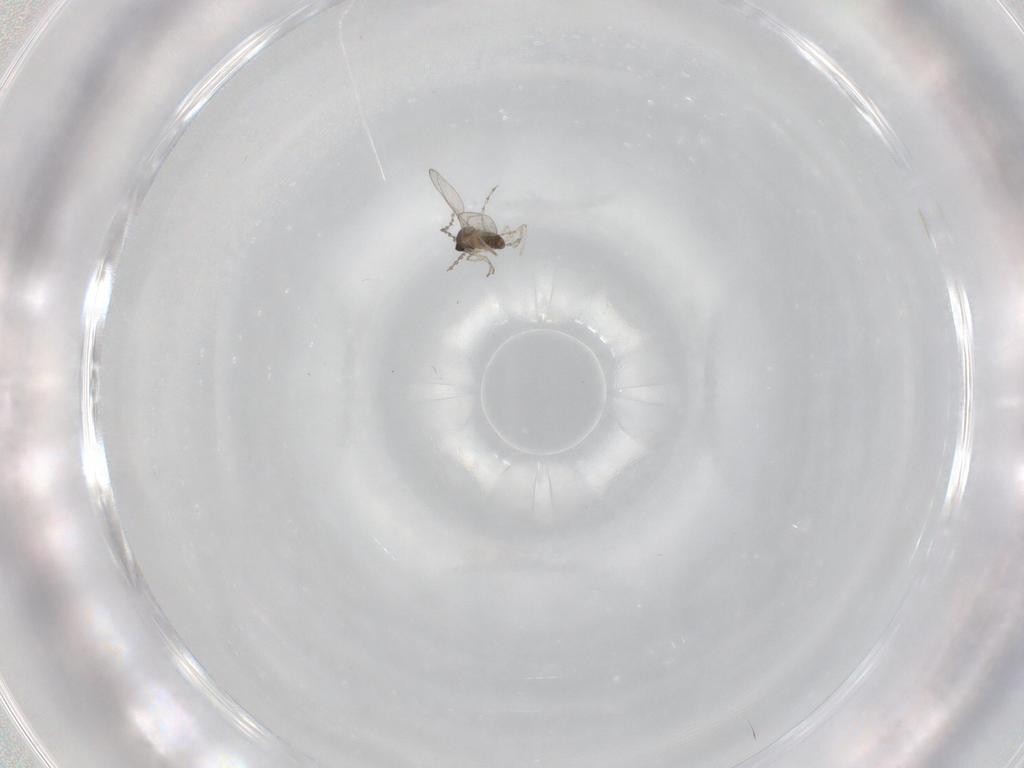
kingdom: Animalia
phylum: Arthropoda
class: Insecta
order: Diptera
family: Cecidomyiidae
